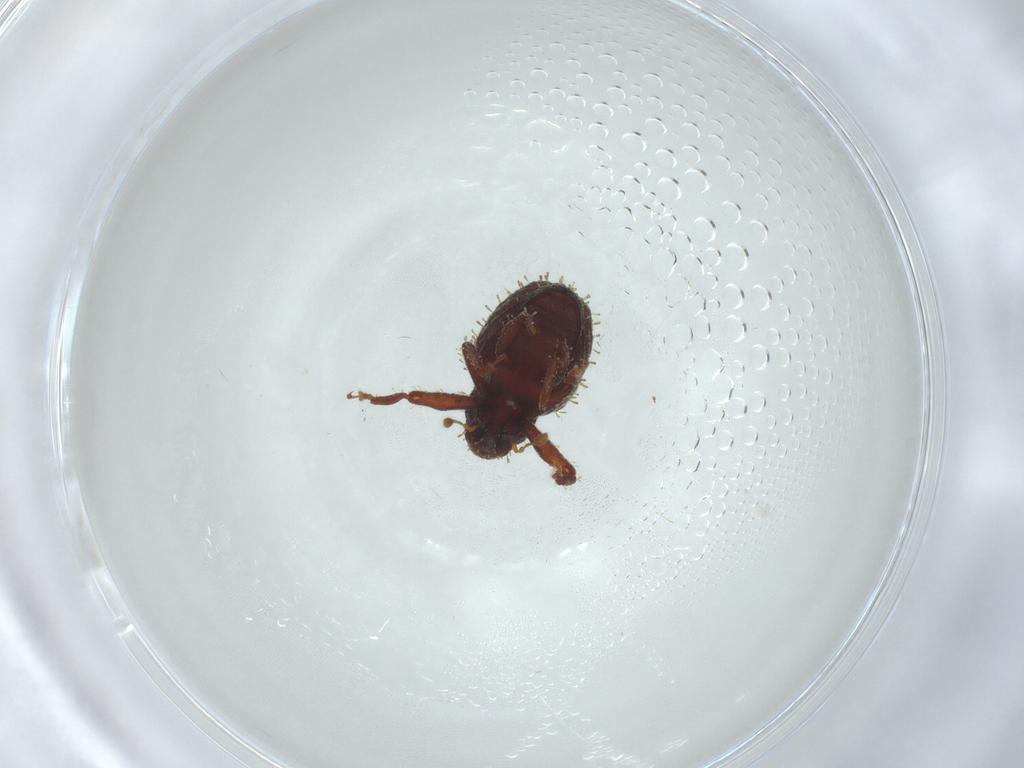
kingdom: Animalia
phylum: Arthropoda
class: Insecta
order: Coleoptera
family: Curculionidae
